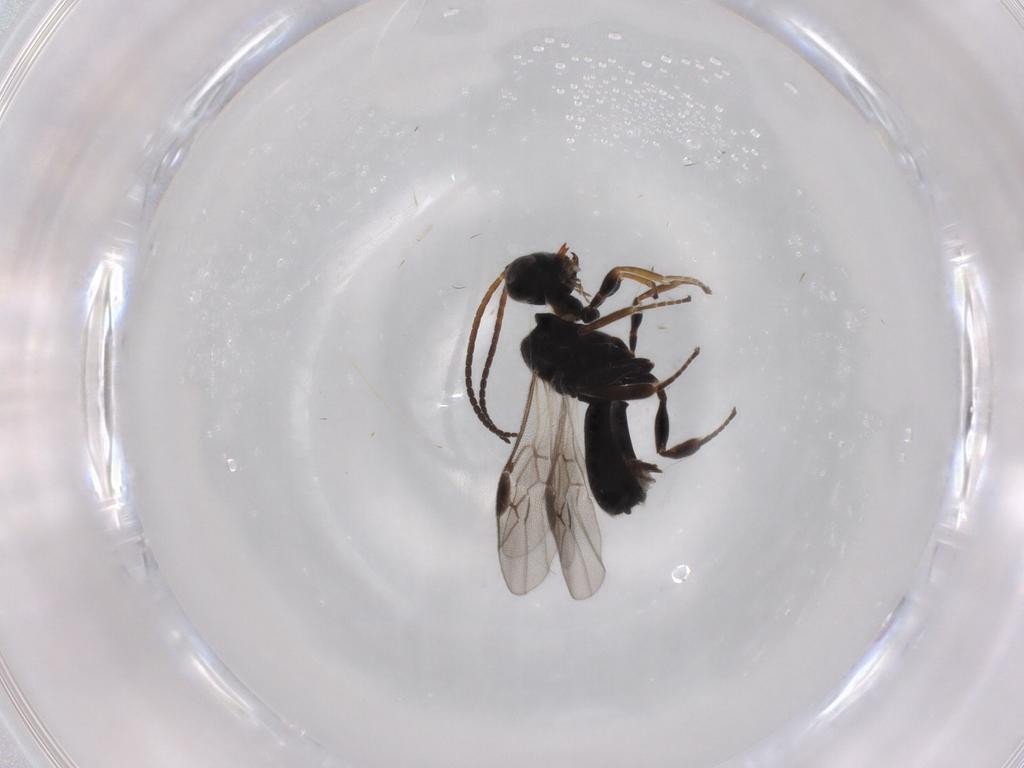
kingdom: Animalia
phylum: Arthropoda
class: Insecta
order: Hymenoptera
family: Braconidae
